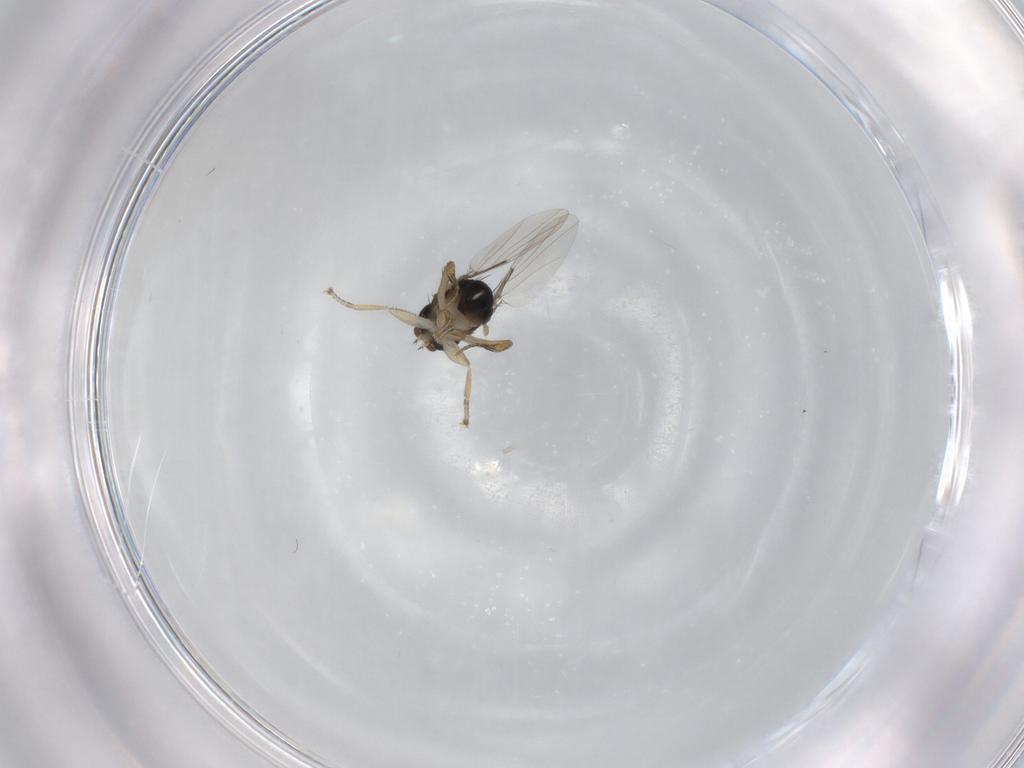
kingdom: Animalia
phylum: Arthropoda
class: Insecta
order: Diptera
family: Phoridae
